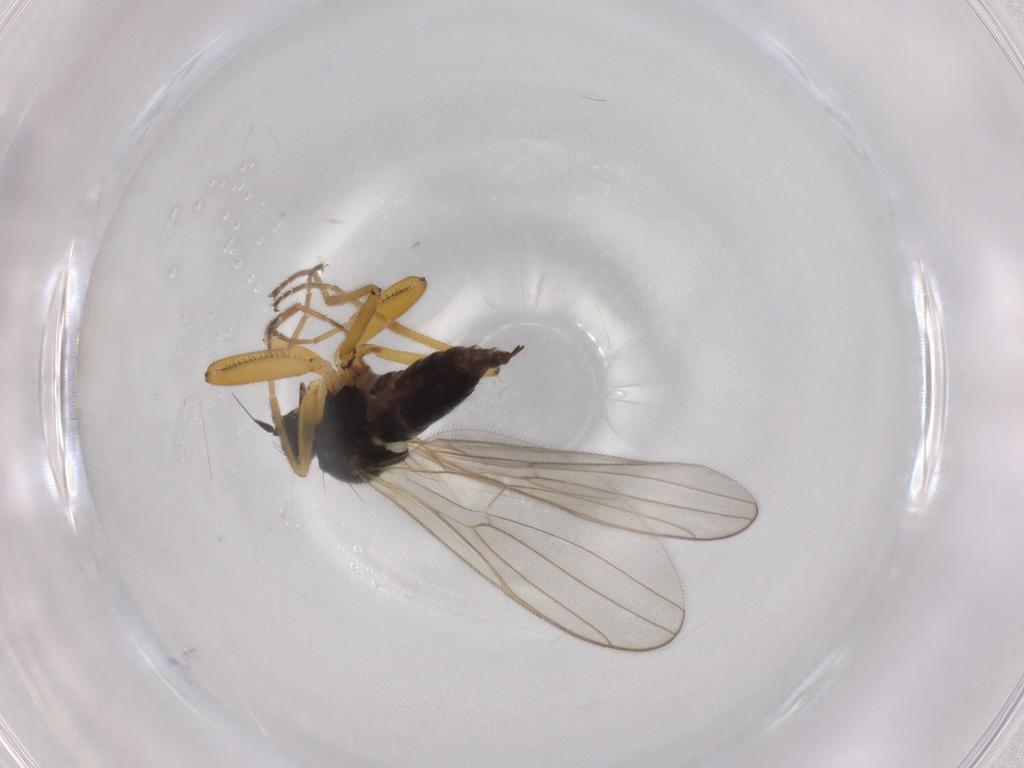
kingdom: Animalia
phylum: Arthropoda
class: Insecta
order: Diptera
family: Hybotidae
